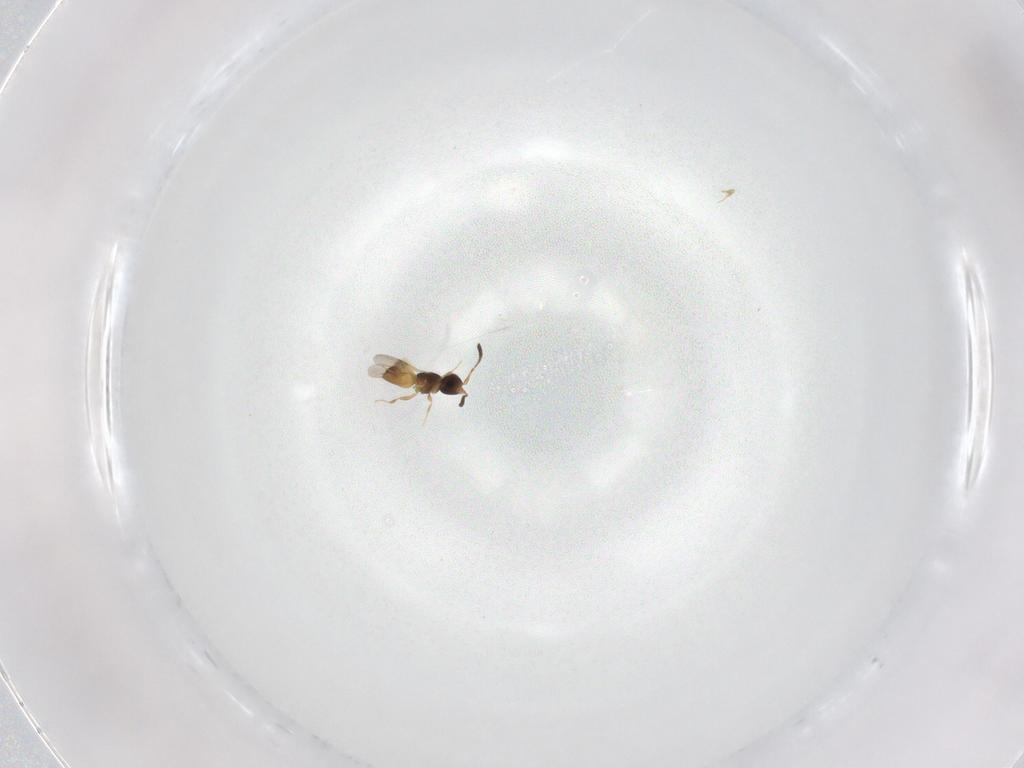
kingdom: Animalia
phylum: Arthropoda
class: Insecta
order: Hymenoptera
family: Eulophidae
